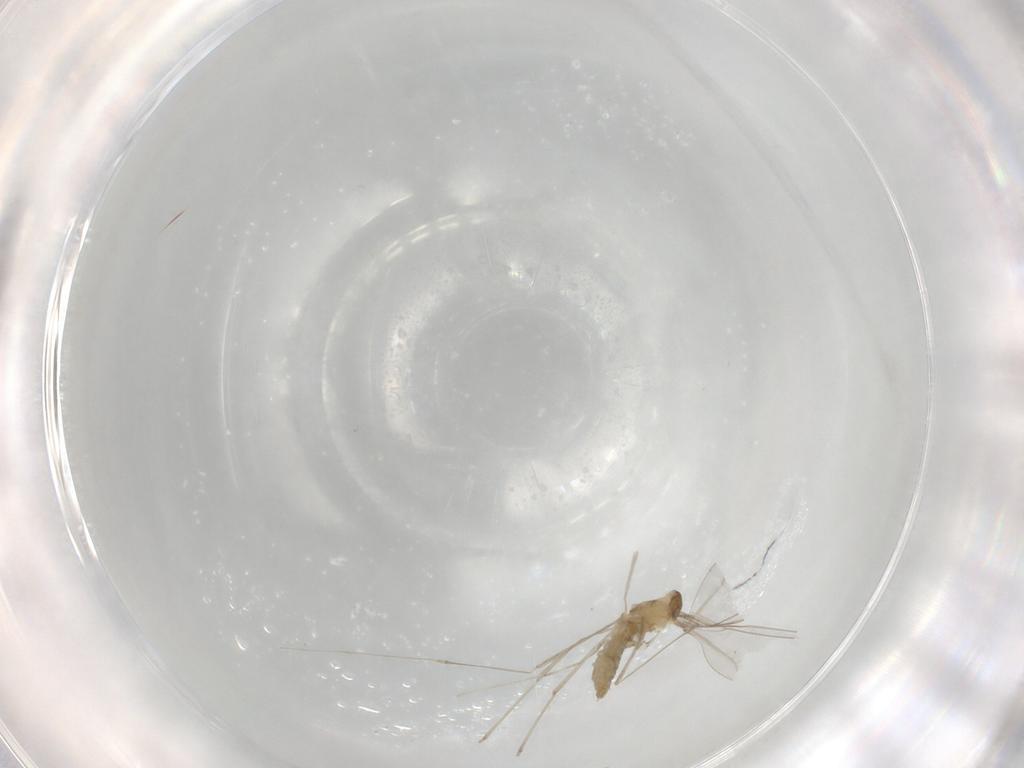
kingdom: Animalia
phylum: Arthropoda
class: Insecta
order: Diptera
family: Cecidomyiidae
